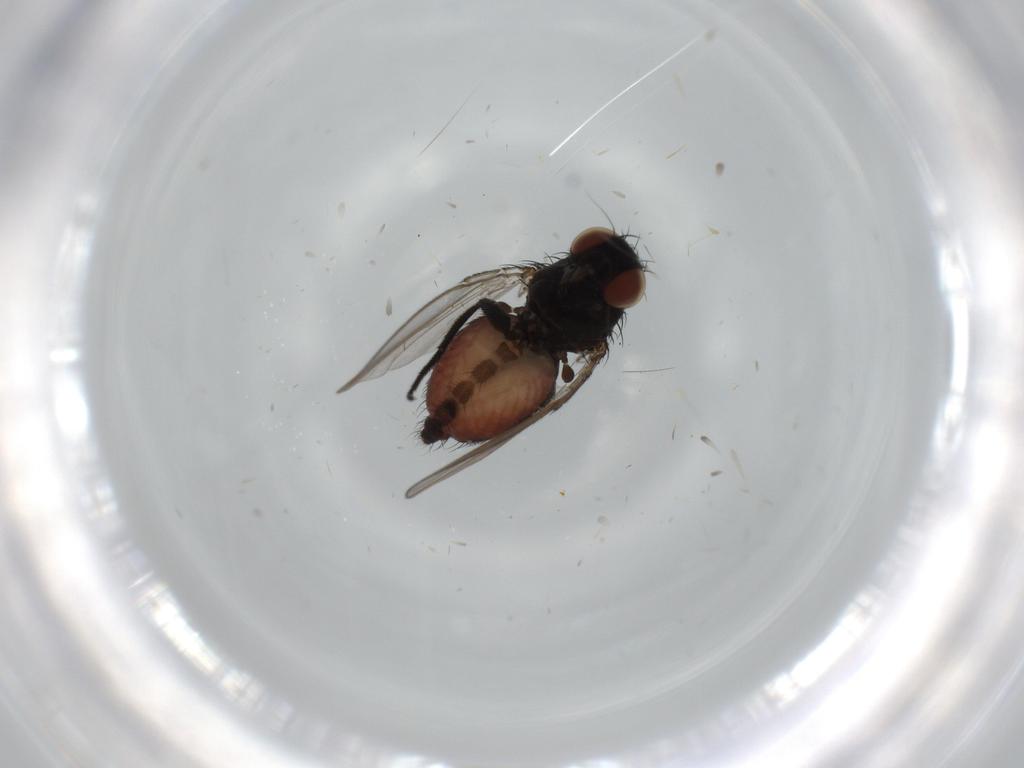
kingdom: Animalia
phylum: Arthropoda
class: Insecta
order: Diptera
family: Milichiidae
